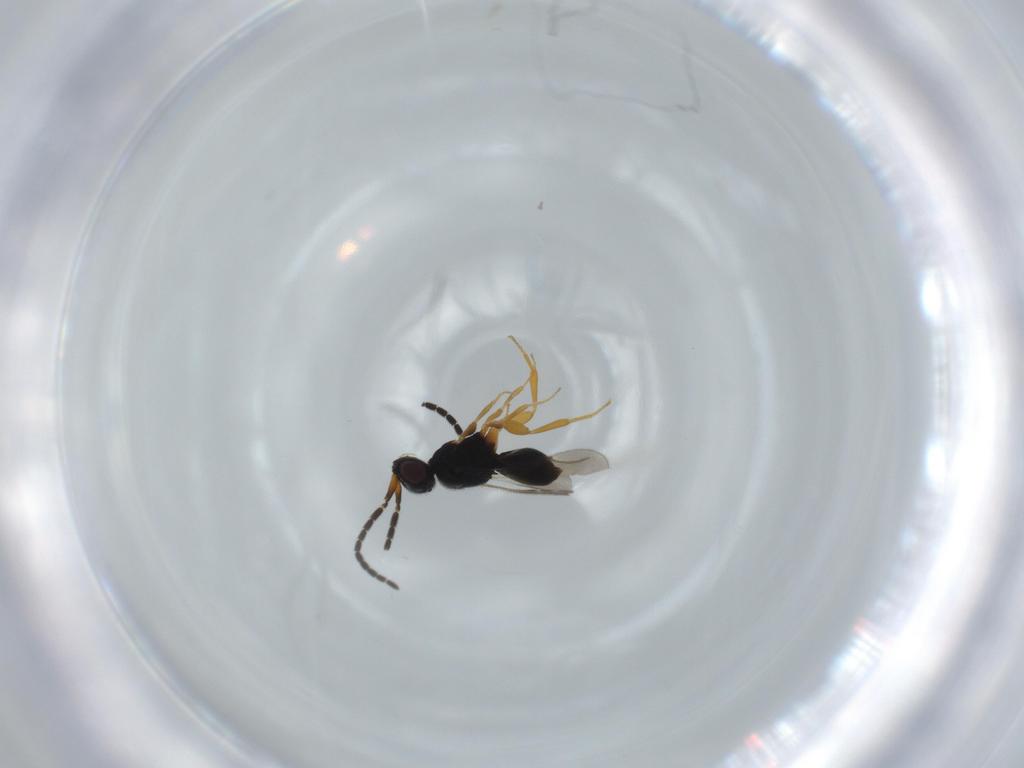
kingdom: Animalia
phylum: Arthropoda
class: Insecta
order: Hymenoptera
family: Ceraphronidae
